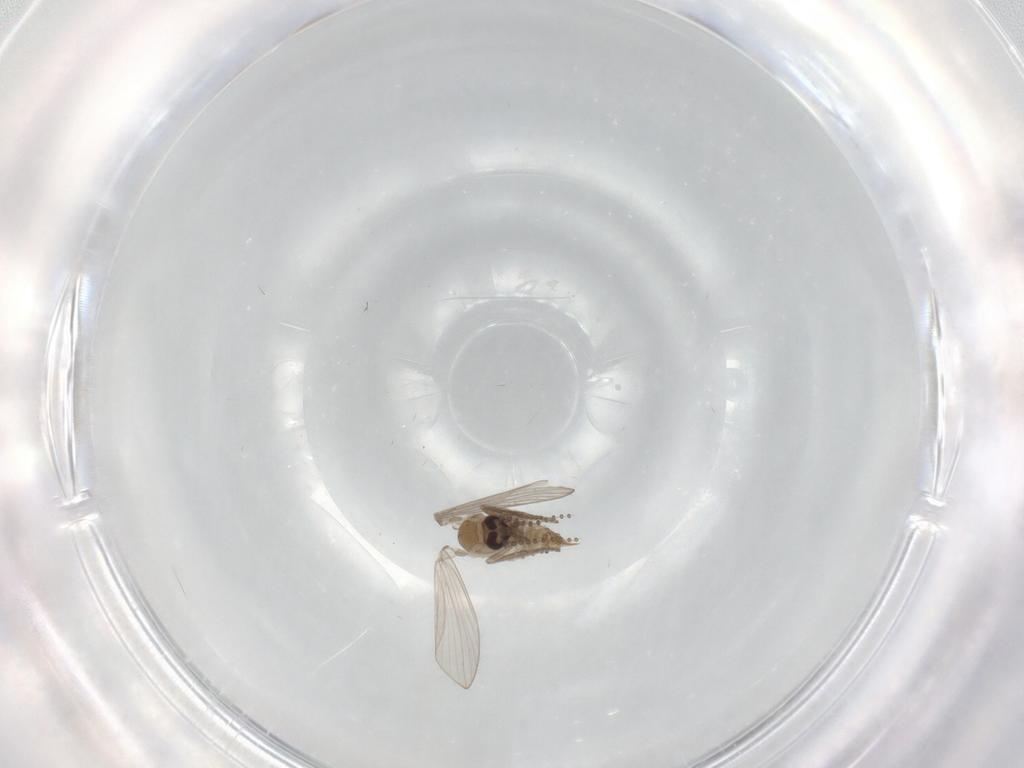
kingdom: Animalia
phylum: Arthropoda
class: Insecta
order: Diptera
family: Psychodidae
